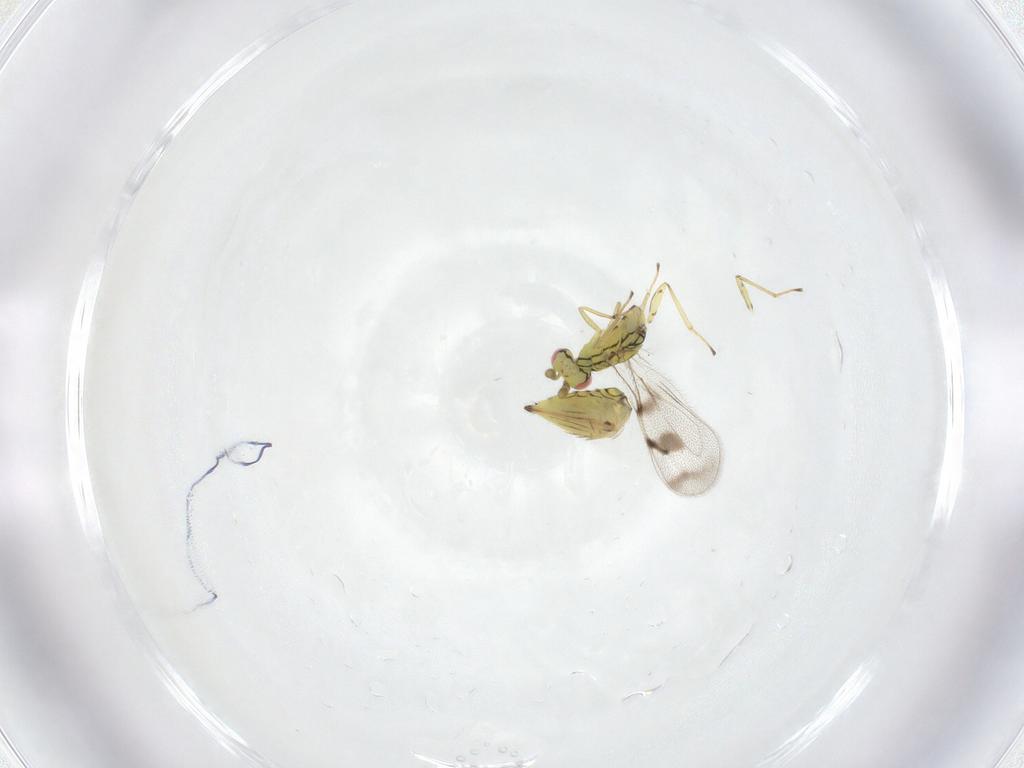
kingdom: Animalia
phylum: Arthropoda
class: Insecta
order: Hymenoptera
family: Eulophidae
